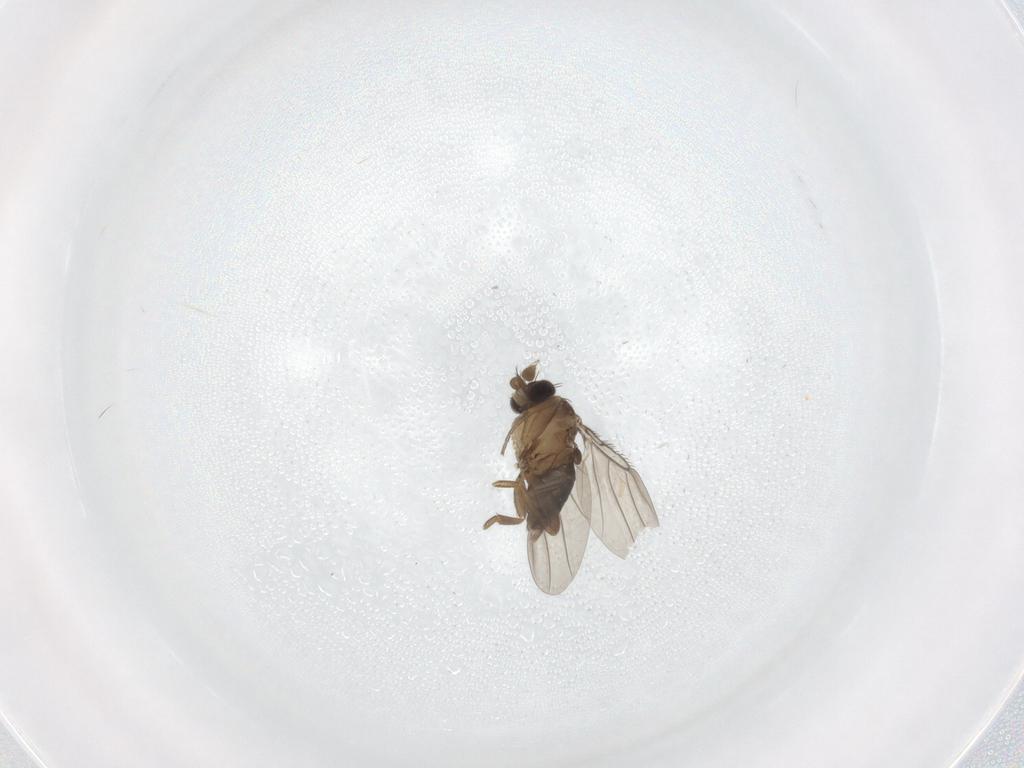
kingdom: Animalia
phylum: Arthropoda
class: Insecta
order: Diptera
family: Phoridae
